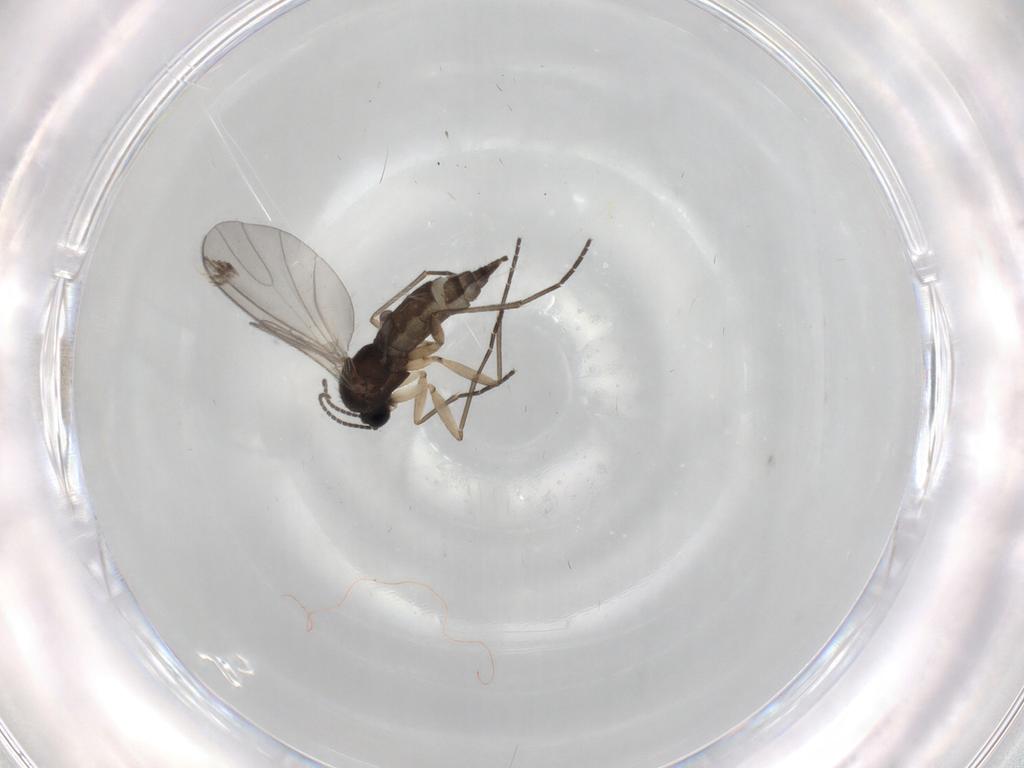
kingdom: Animalia
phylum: Arthropoda
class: Insecta
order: Diptera
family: Sciaridae
